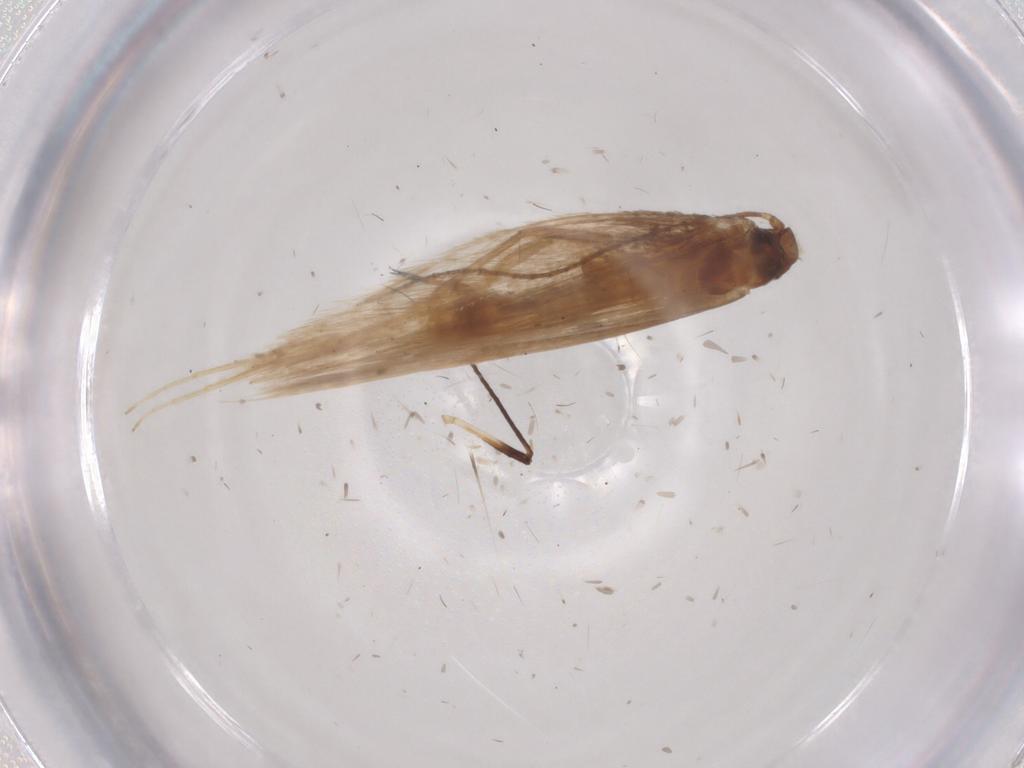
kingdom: Animalia
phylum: Arthropoda
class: Insecta
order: Lepidoptera
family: Tischeriidae
